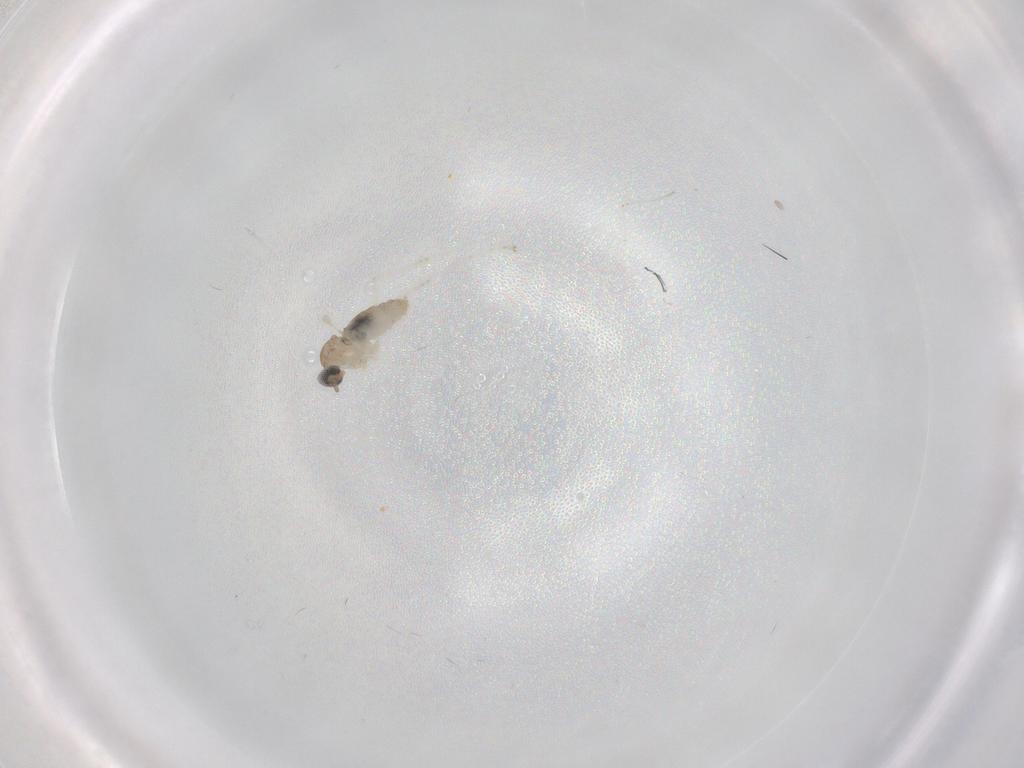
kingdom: Animalia
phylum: Arthropoda
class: Insecta
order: Diptera
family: Cecidomyiidae
